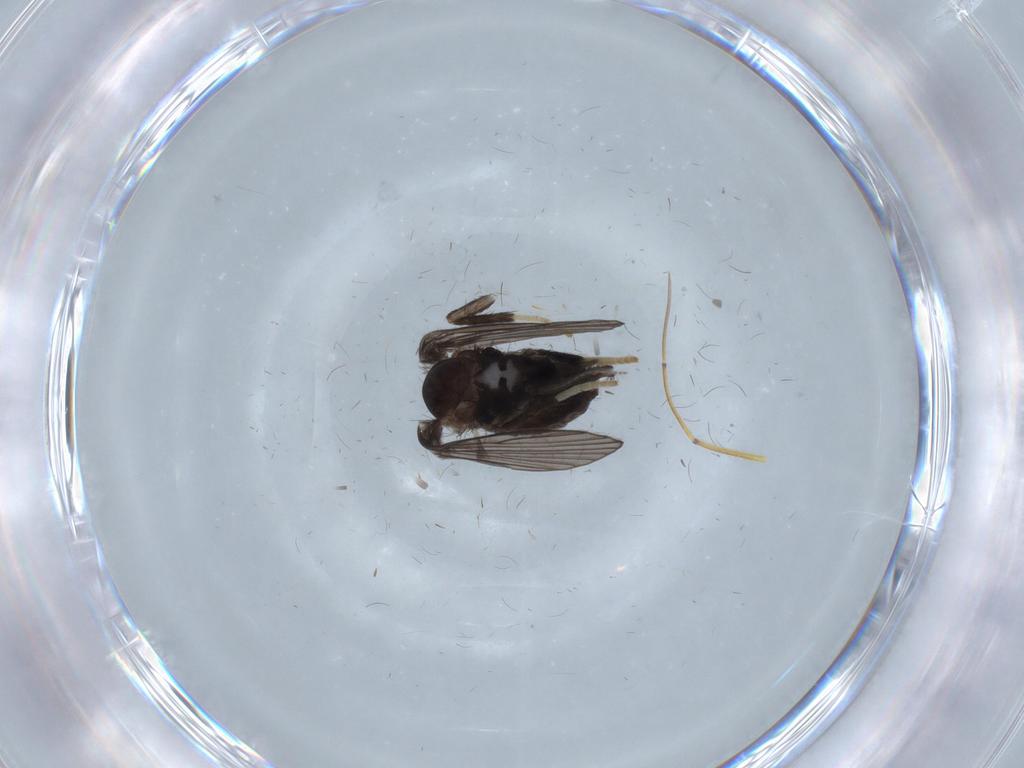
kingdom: Animalia
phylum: Arthropoda
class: Insecta
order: Diptera
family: Psychodidae
